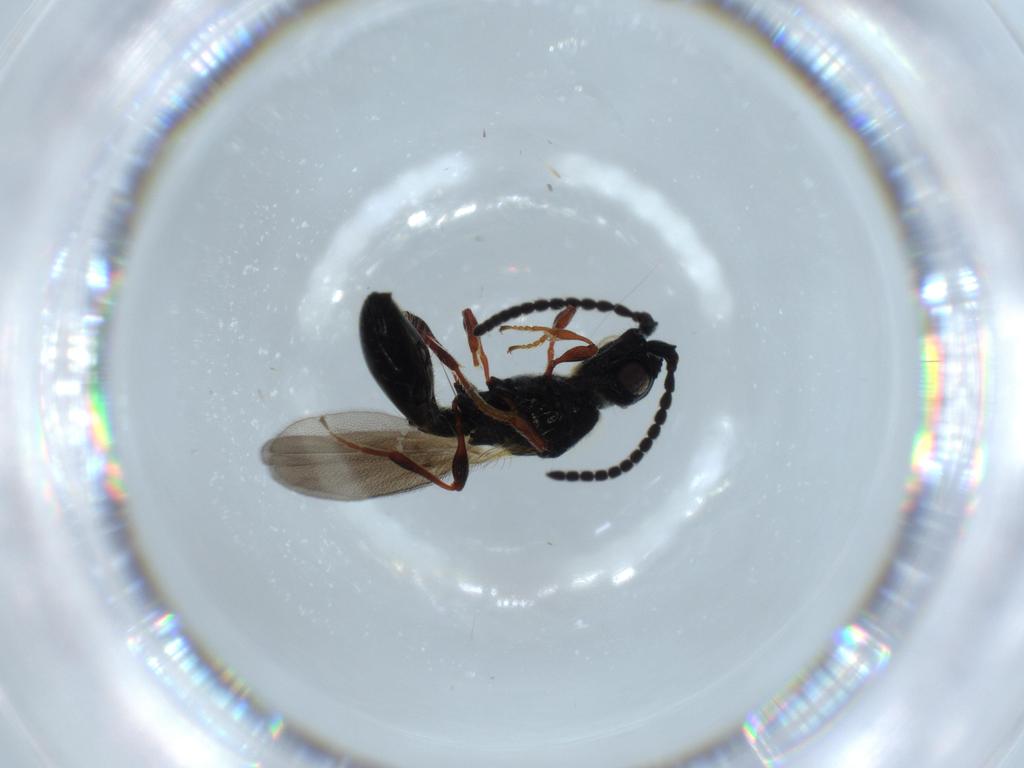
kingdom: Animalia
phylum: Arthropoda
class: Insecta
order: Hymenoptera
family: Diapriidae
